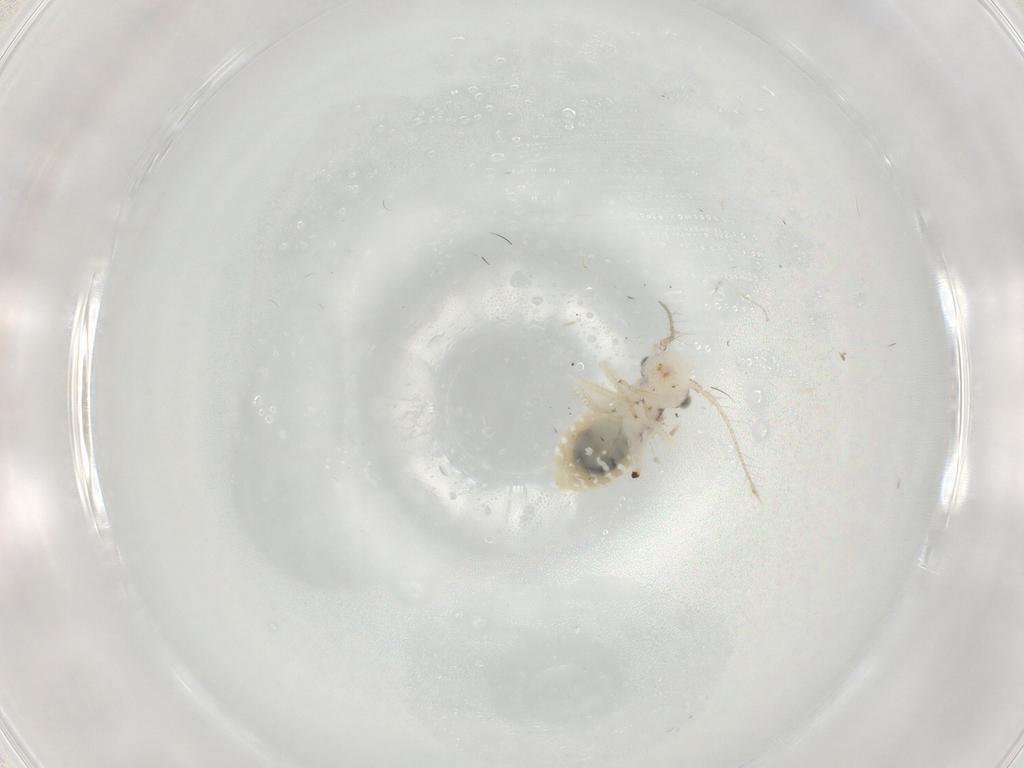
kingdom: Animalia
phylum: Arthropoda
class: Insecta
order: Psocodea
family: Pseudocaeciliidae
